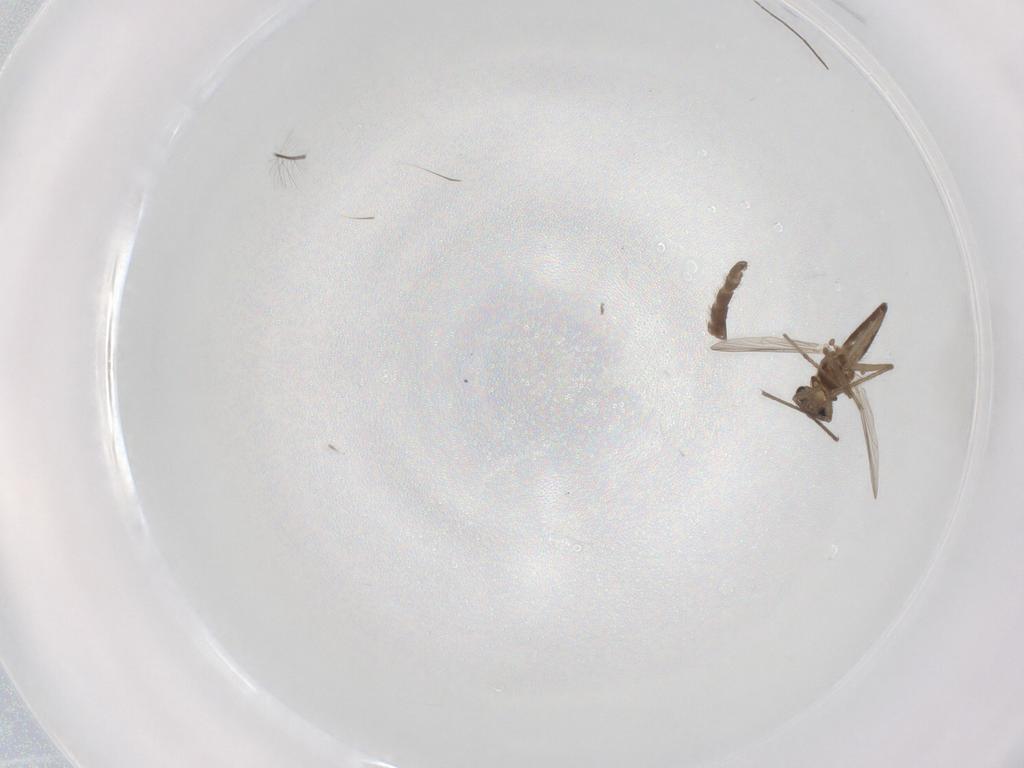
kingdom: Animalia
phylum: Arthropoda
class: Insecta
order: Diptera
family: Chironomidae
